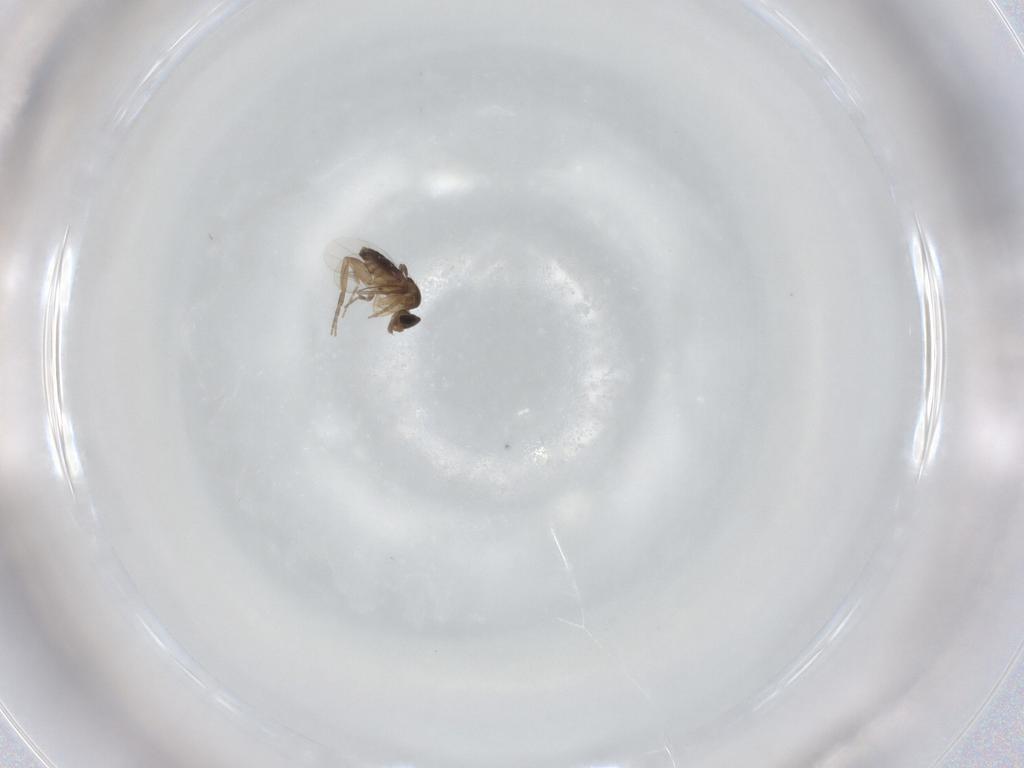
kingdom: Animalia
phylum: Arthropoda
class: Insecta
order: Diptera
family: Phoridae
